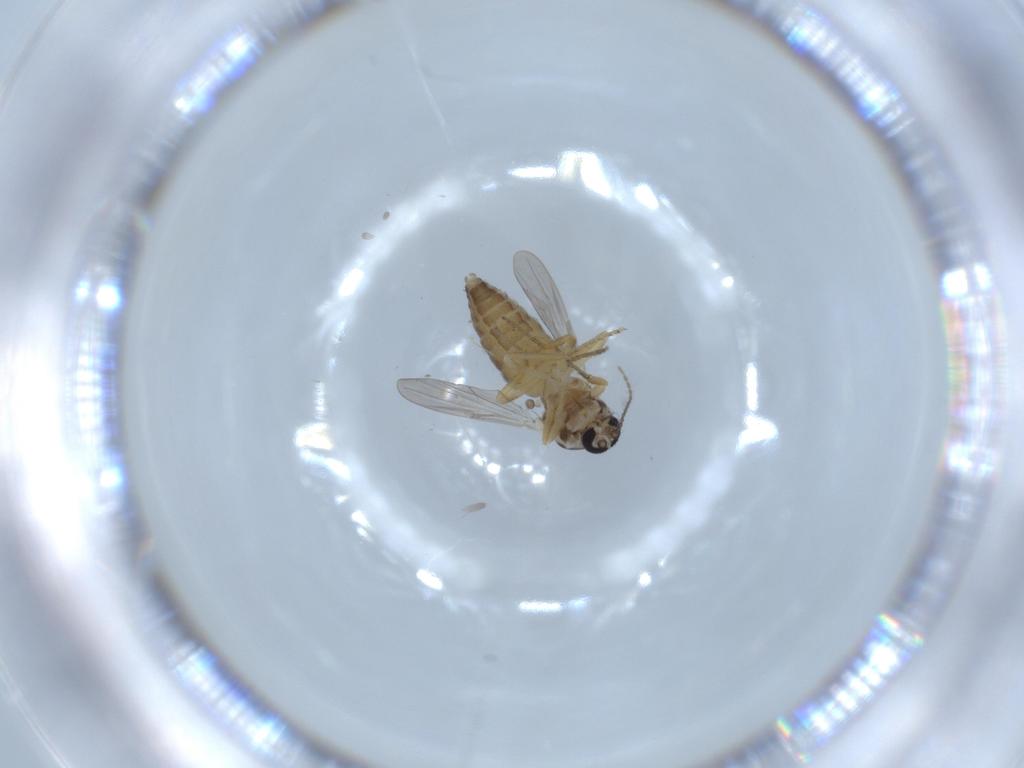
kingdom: Animalia
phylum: Arthropoda
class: Insecta
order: Diptera
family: Ceratopogonidae
